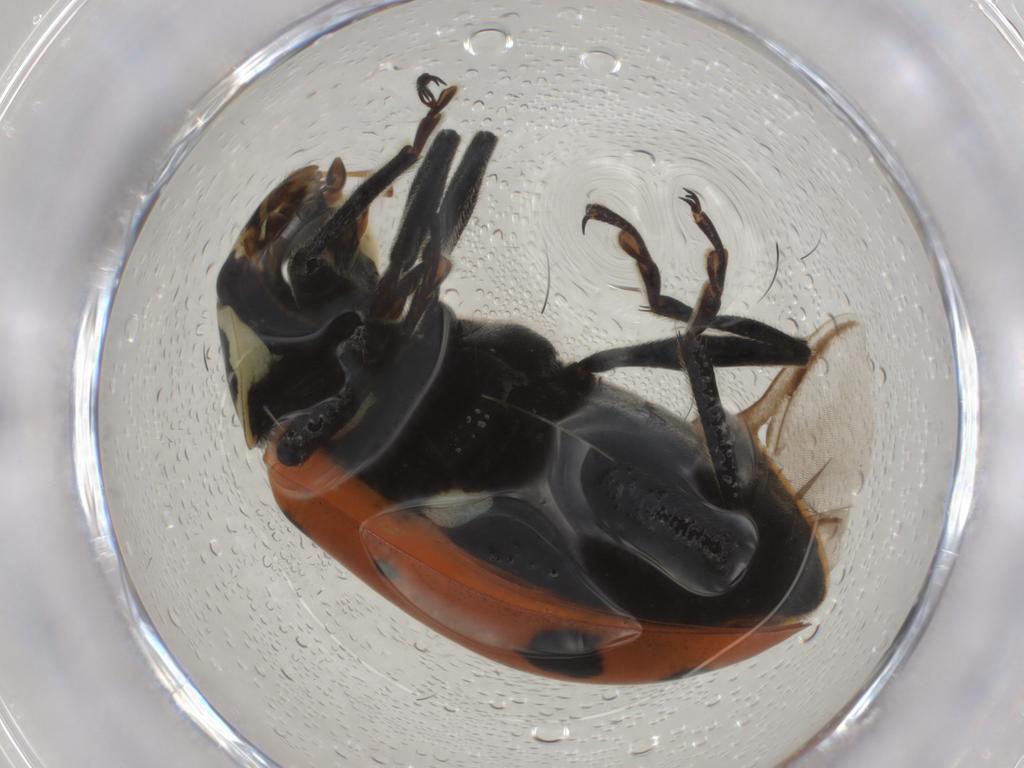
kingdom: Animalia
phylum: Arthropoda
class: Insecta
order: Coleoptera
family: Coccinellidae
